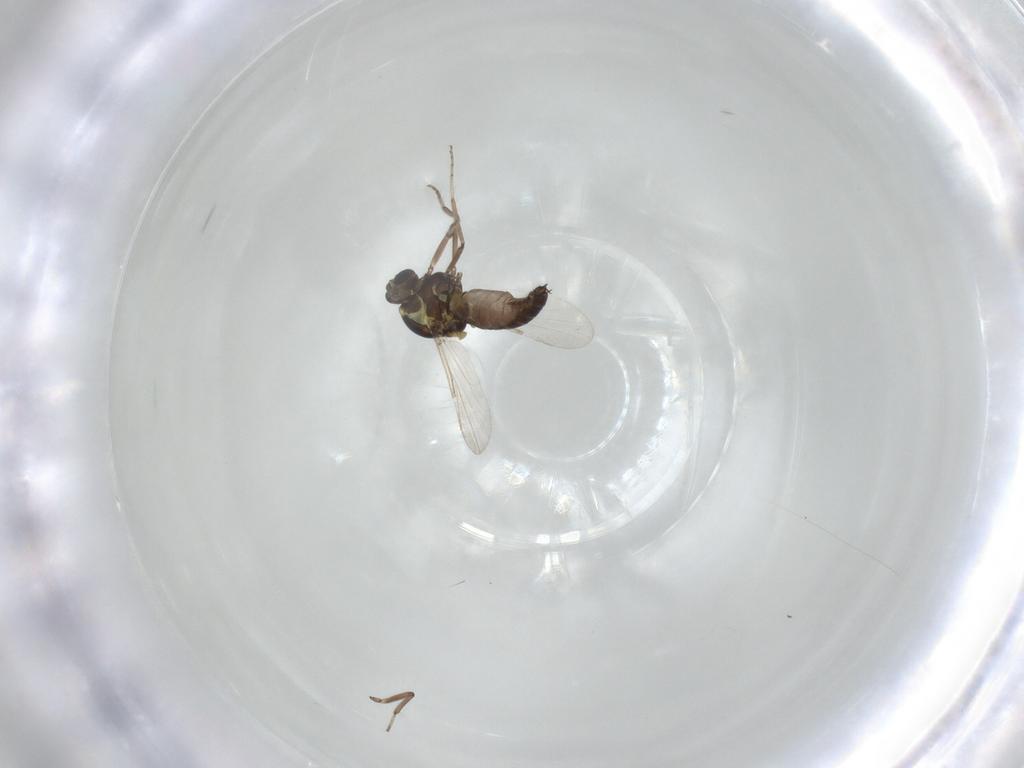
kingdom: Animalia
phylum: Arthropoda
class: Insecta
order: Diptera
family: Ceratopogonidae
